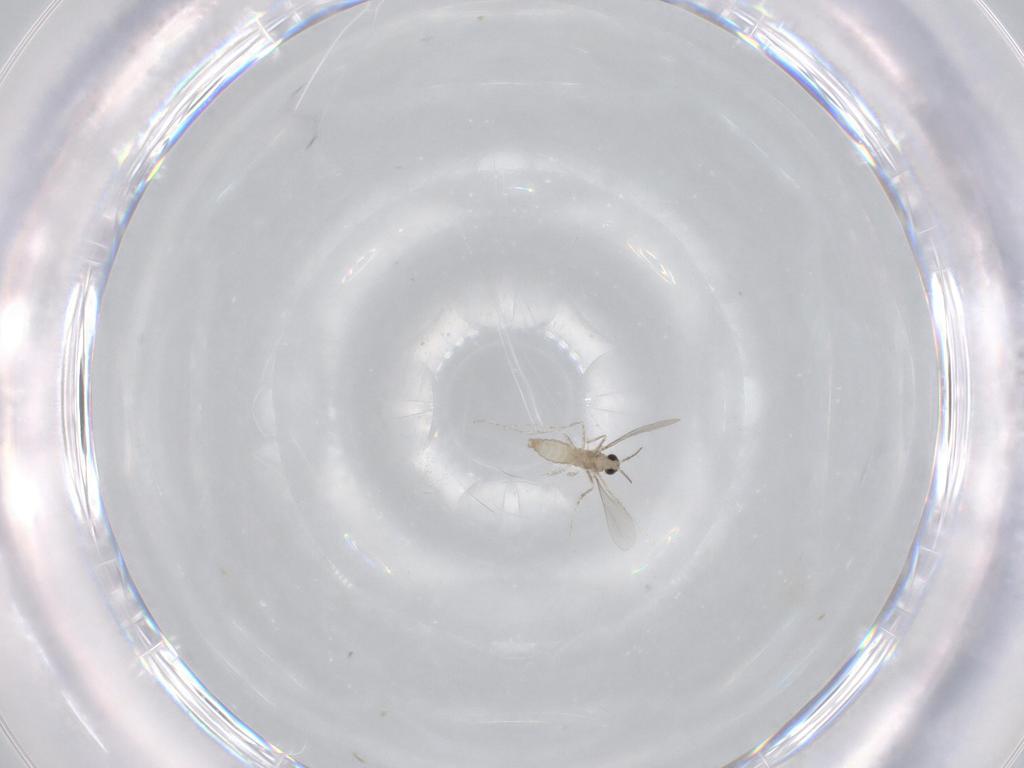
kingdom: Animalia
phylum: Arthropoda
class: Insecta
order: Diptera
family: Chironomidae
